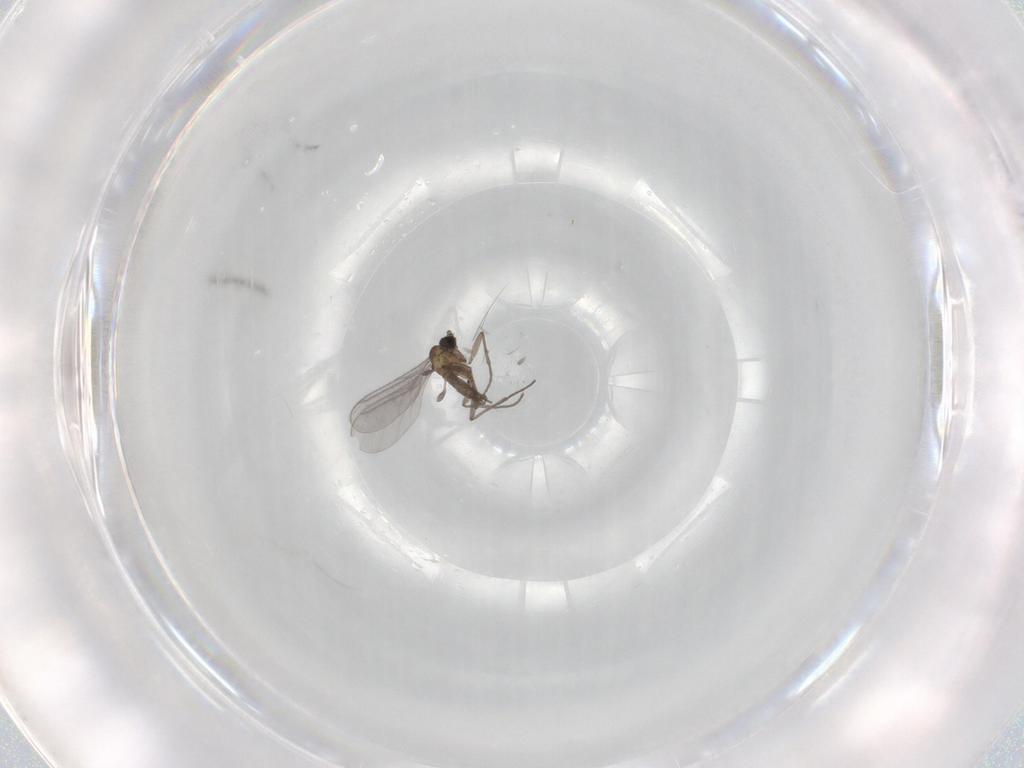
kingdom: Animalia
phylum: Arthropoda
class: Insecta
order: Diptera
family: Sciaridae
